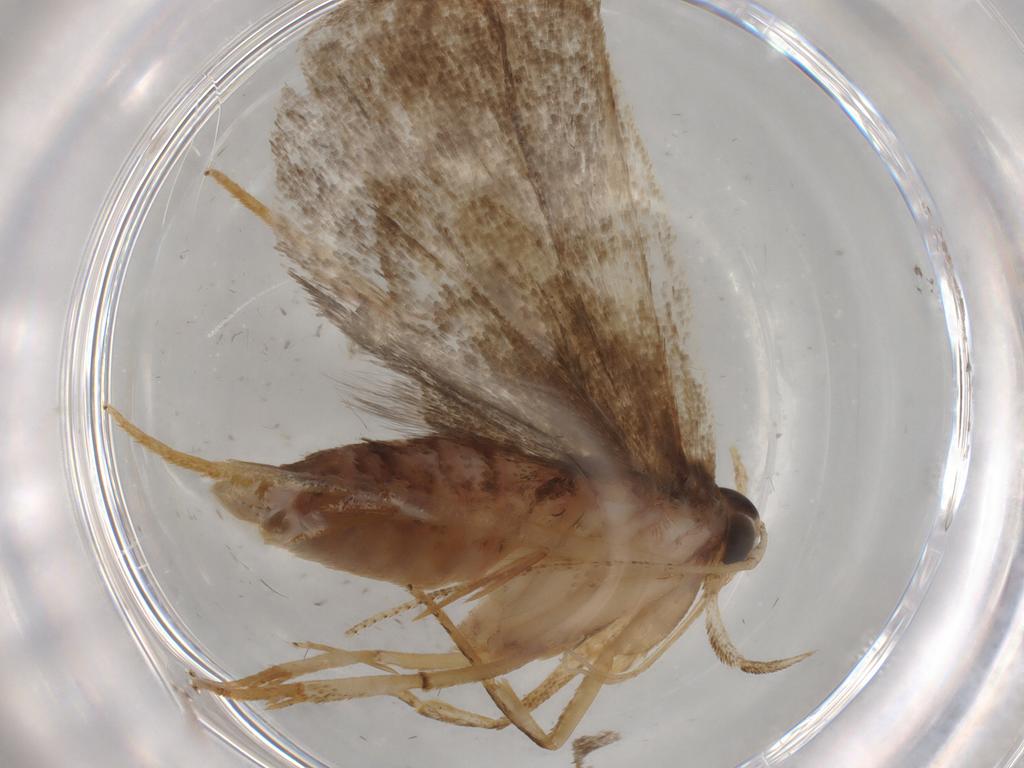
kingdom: Animalia
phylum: Arthropoda
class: Insecta
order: Lepidoptera
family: Autostichidae
